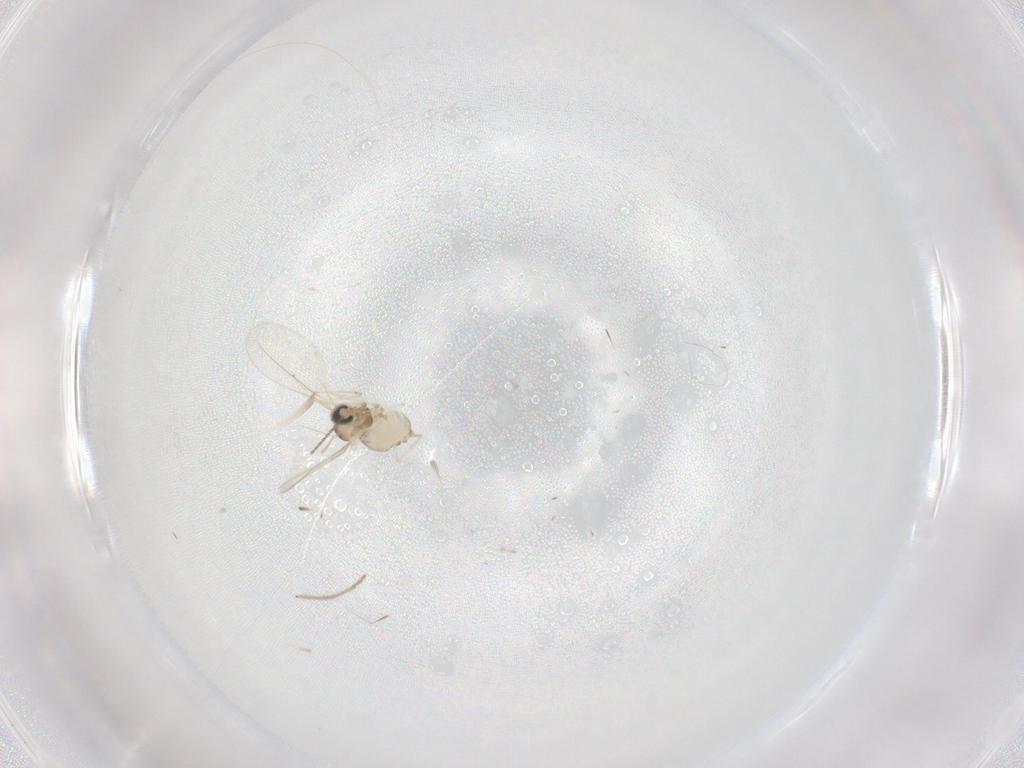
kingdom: Animalia
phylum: Arthropoda
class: Insecta
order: Diptera
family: Cecidomyiidae
